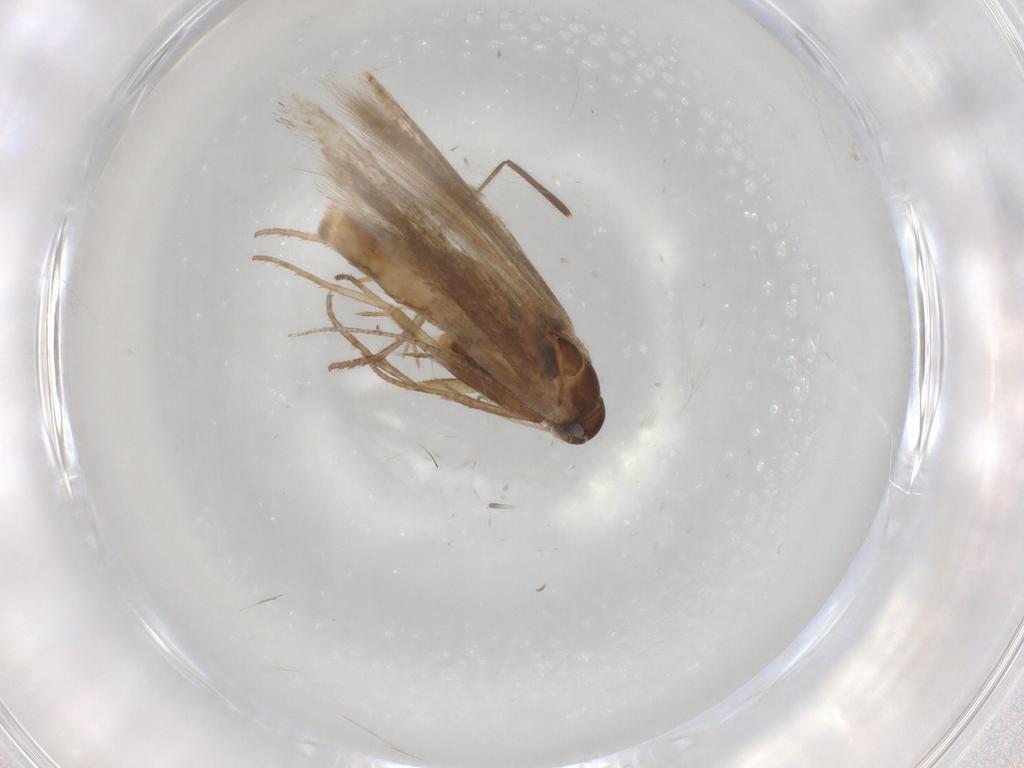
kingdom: Animalia
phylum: Arthropoda
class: Insecta
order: Lepidoptera
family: Gelechiidae
